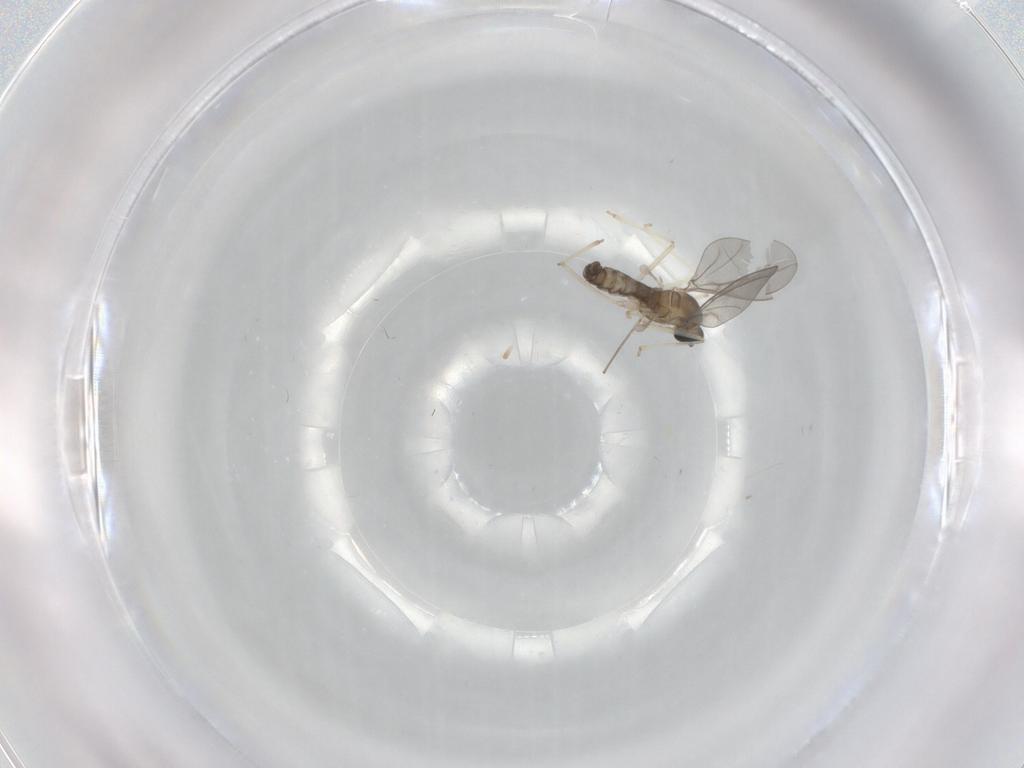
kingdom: Animalia
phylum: Arthropoda
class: Insecta
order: Diptera
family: Cecidomyiidae
